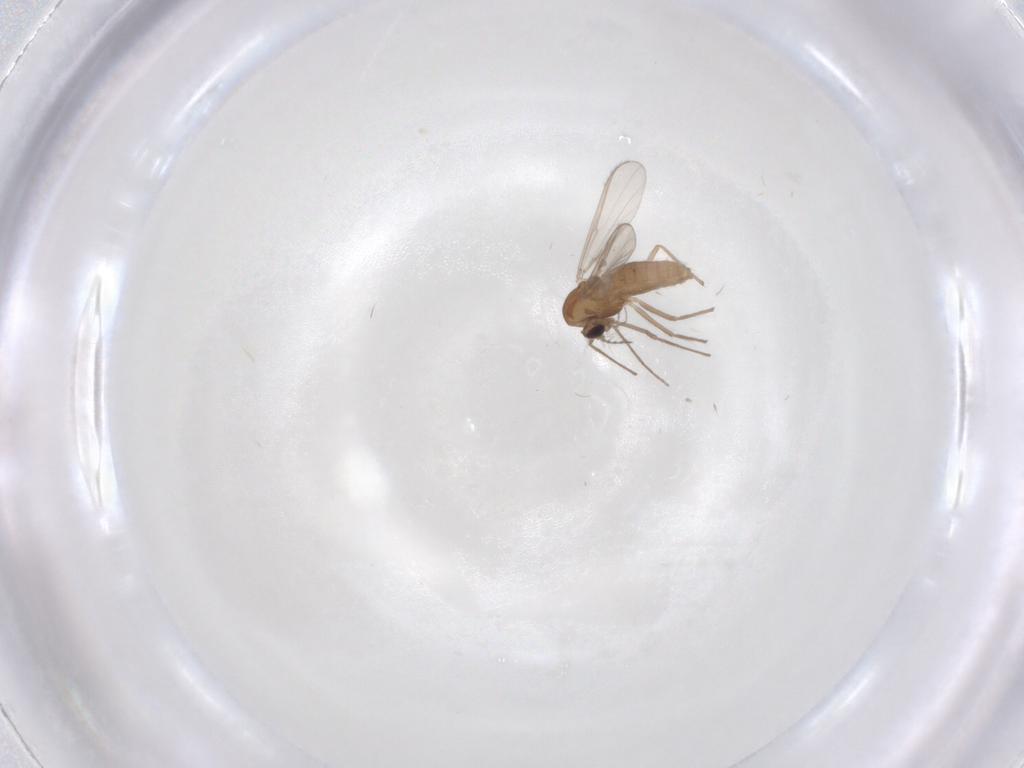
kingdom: Animalia
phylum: Arthropoda
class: Insecta
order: Diptera
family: Chironomidae
